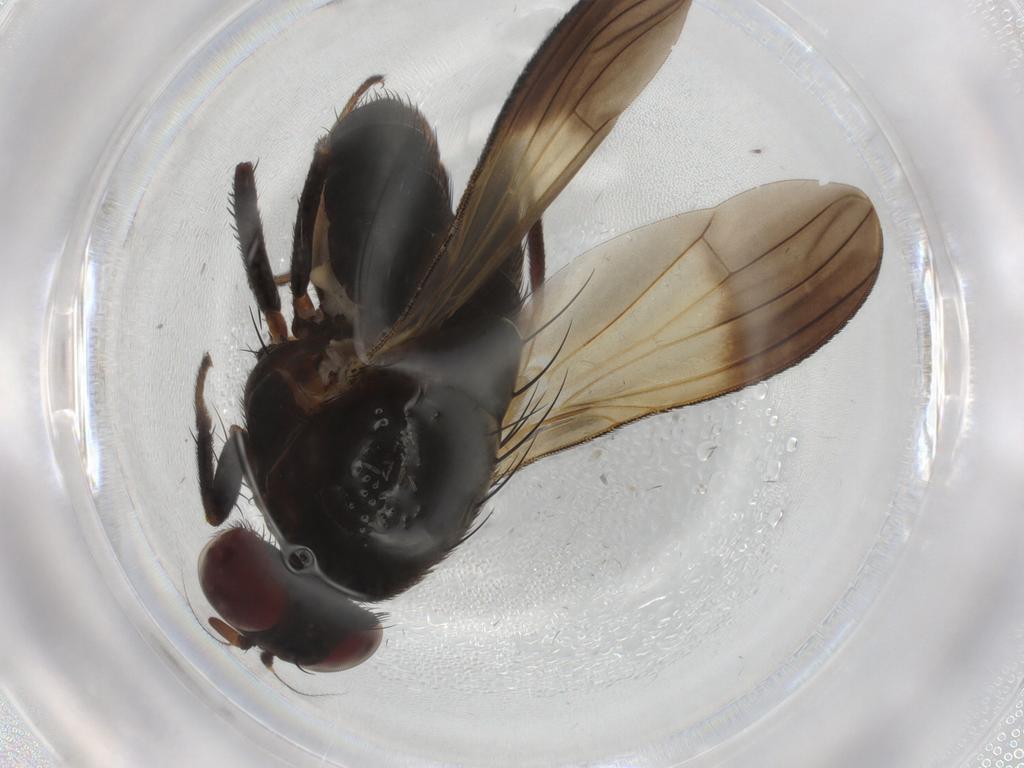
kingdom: Animalia
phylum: Arthropoda
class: Insecta
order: Diptera
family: Chironomidae
